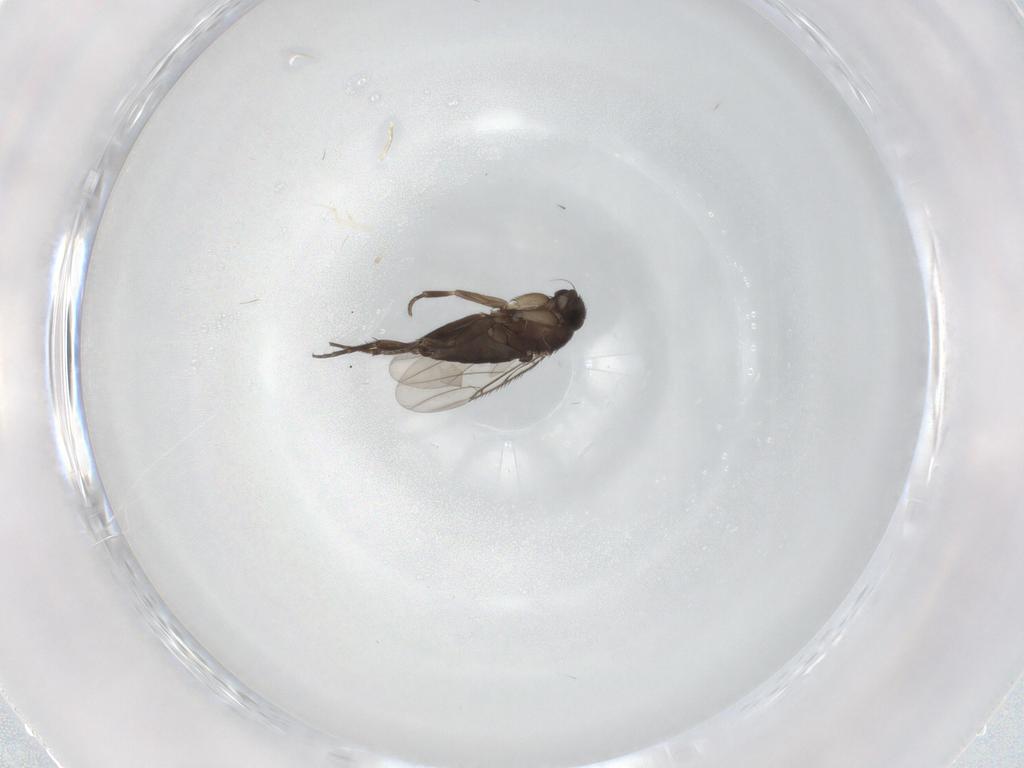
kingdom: Animalia
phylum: Arthropoda
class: Insecta
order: Diptera
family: Phoridae
